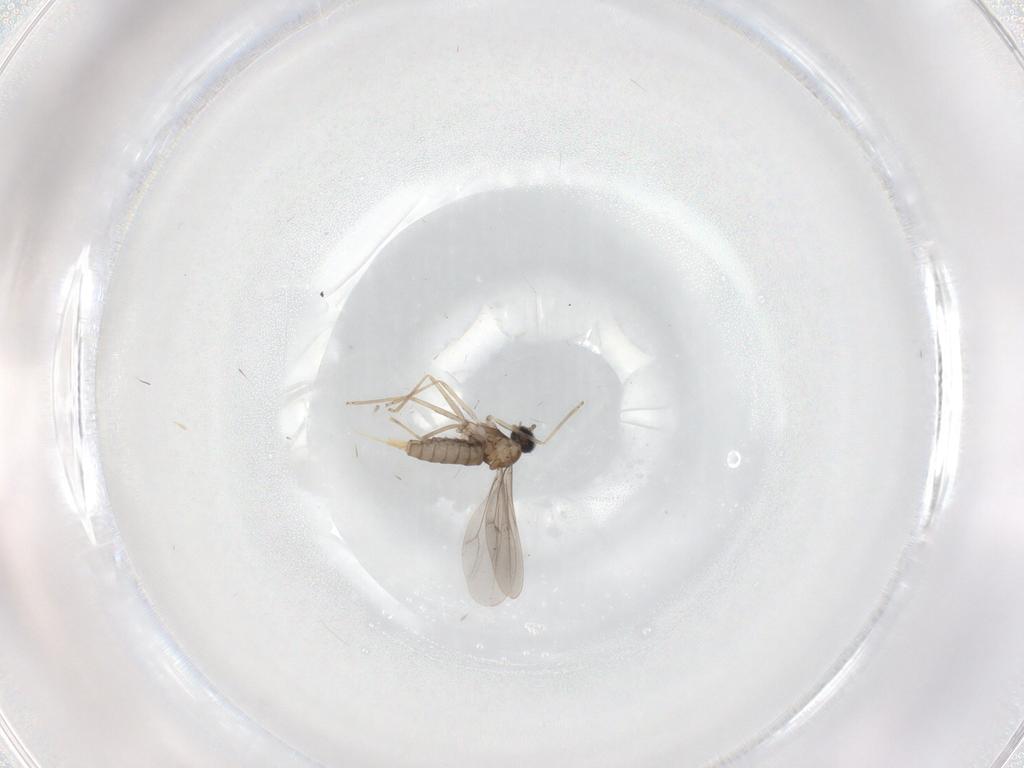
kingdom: Animalia
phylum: Arthropoda
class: Insecta
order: Diptera
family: Cecidomyiidae
